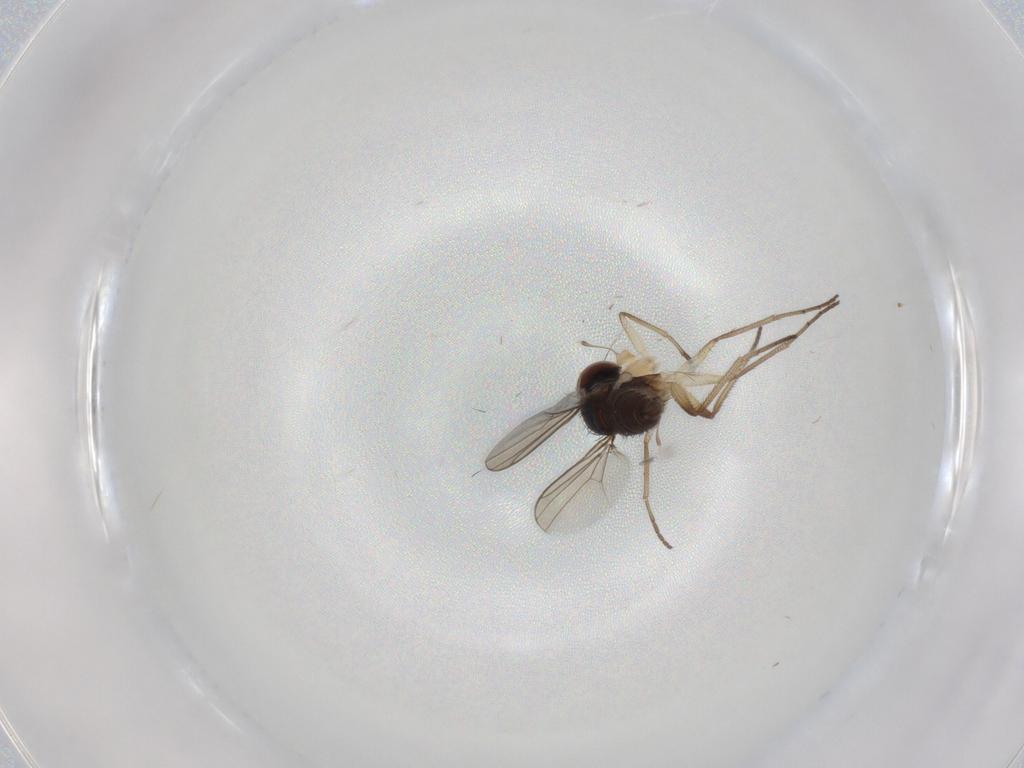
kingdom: Animalia
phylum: Arthropoda
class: Insecta
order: Diptera
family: Dolichopodidae
